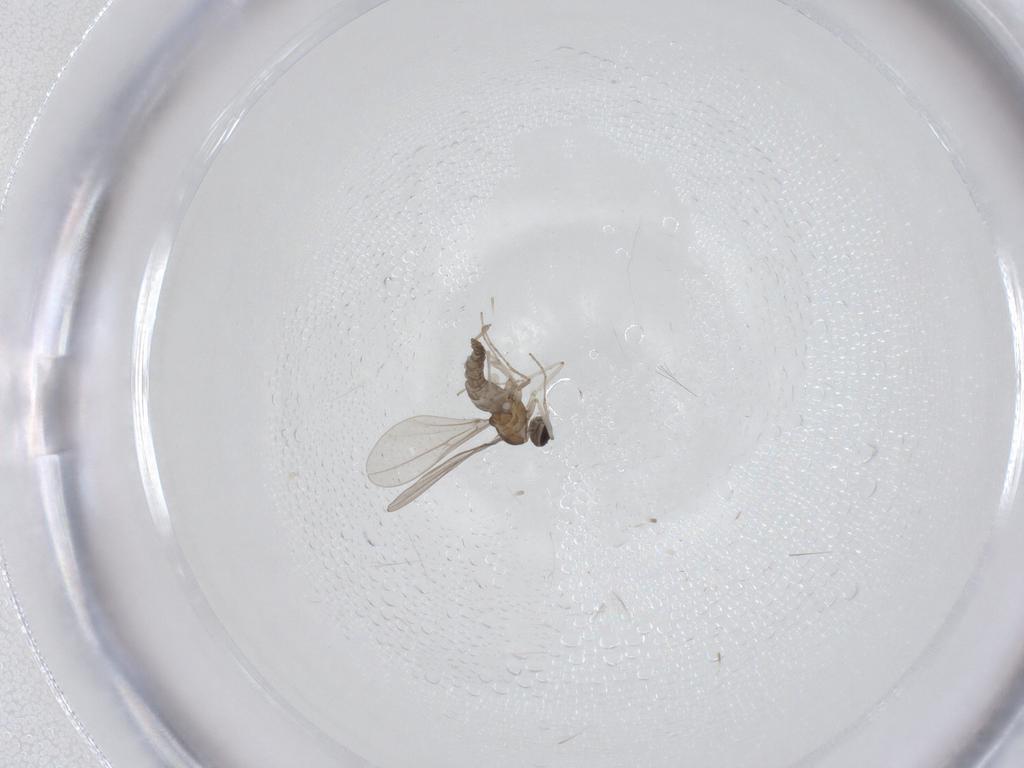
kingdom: Animalia
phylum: Arthropoda
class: Insecta
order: Diptera
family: Cecidomyiidae
